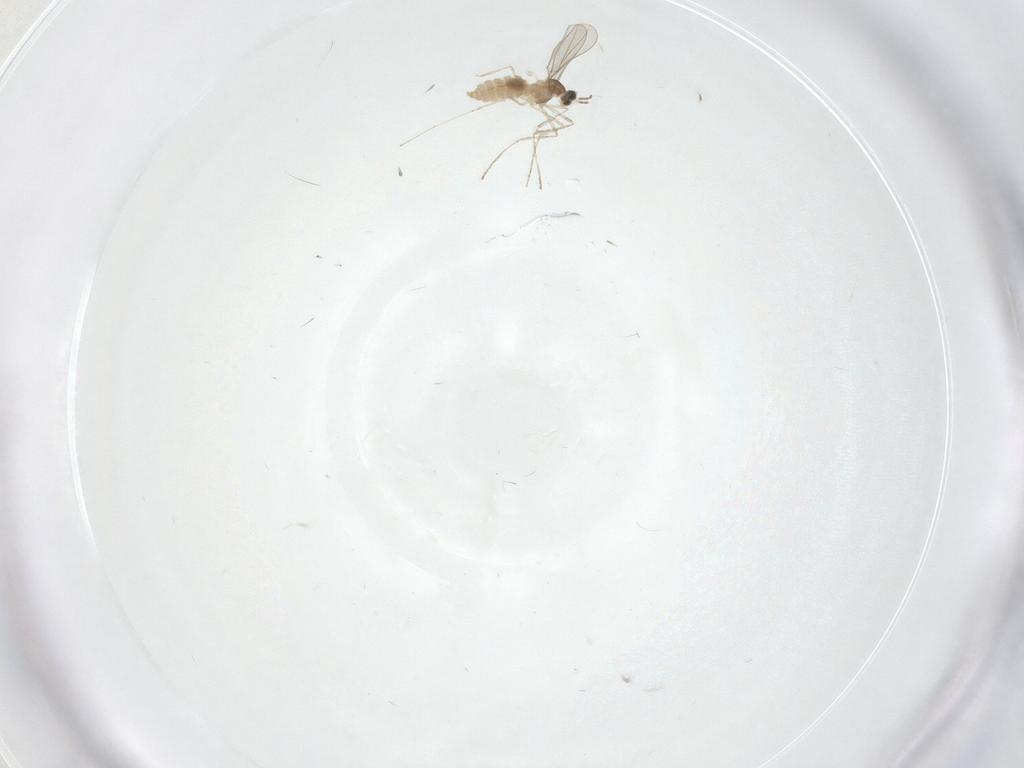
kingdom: Animalia
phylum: Arthropoda
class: Insecta
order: Diptera
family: Cecidomyiidae
